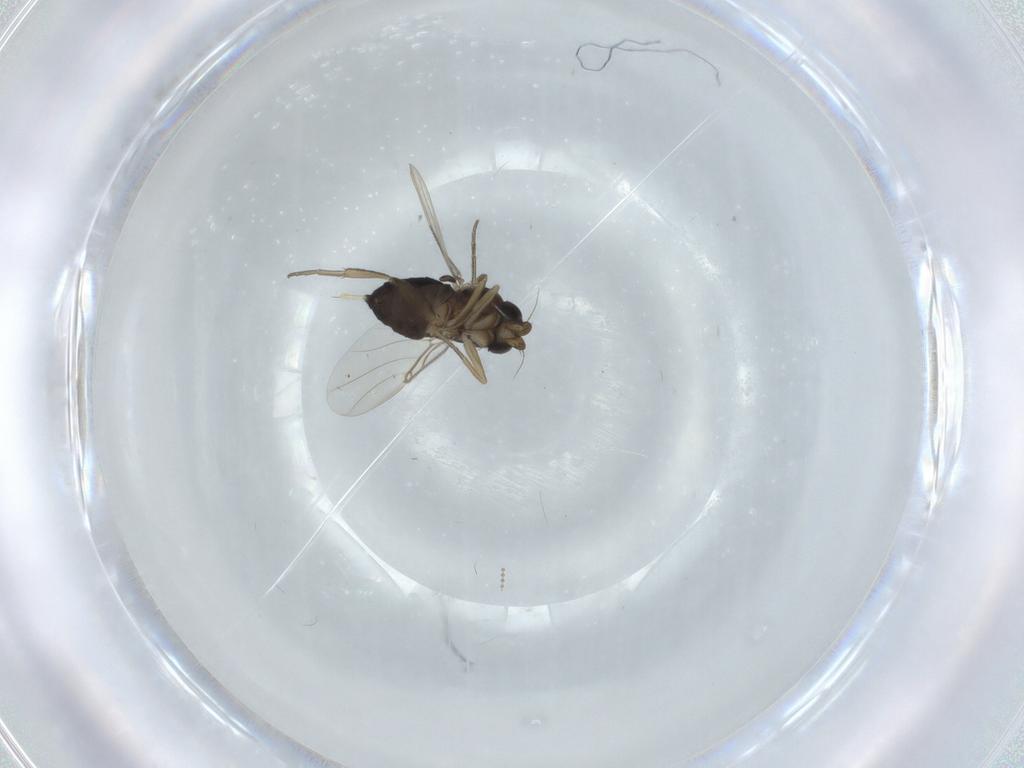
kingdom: Animalia
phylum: Arthropoda
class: Insecta
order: Diptera
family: Phoridae
